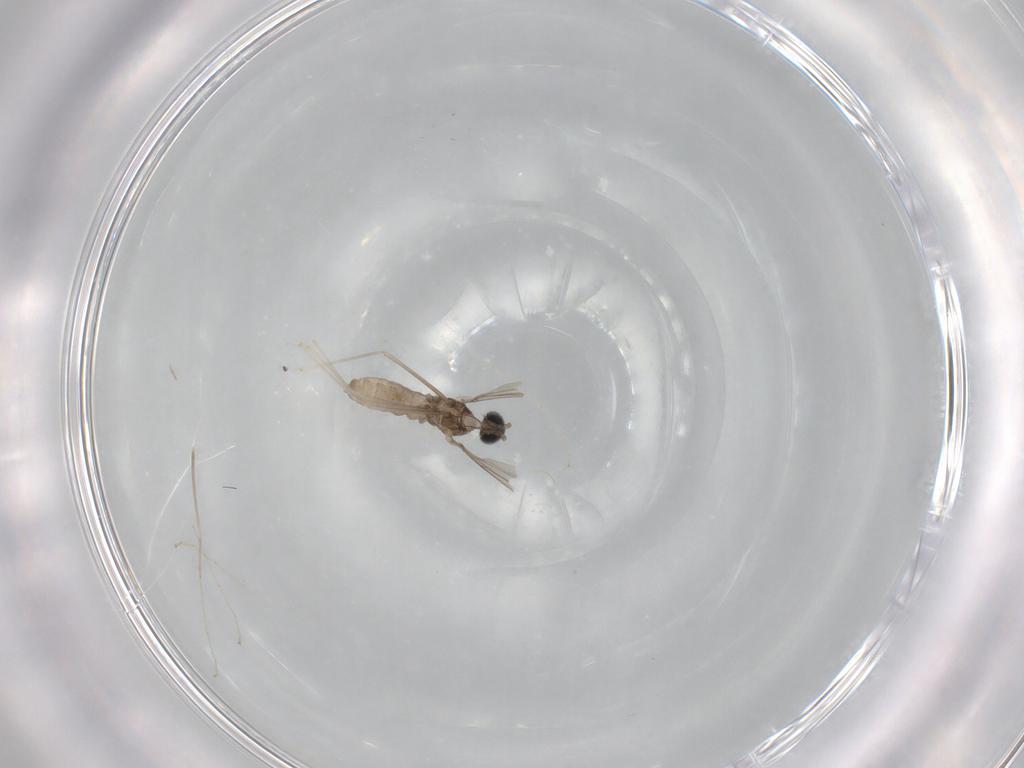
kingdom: Animalia
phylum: Arthropoda
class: Insecta
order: Diptera
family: Cecidomyiidae
